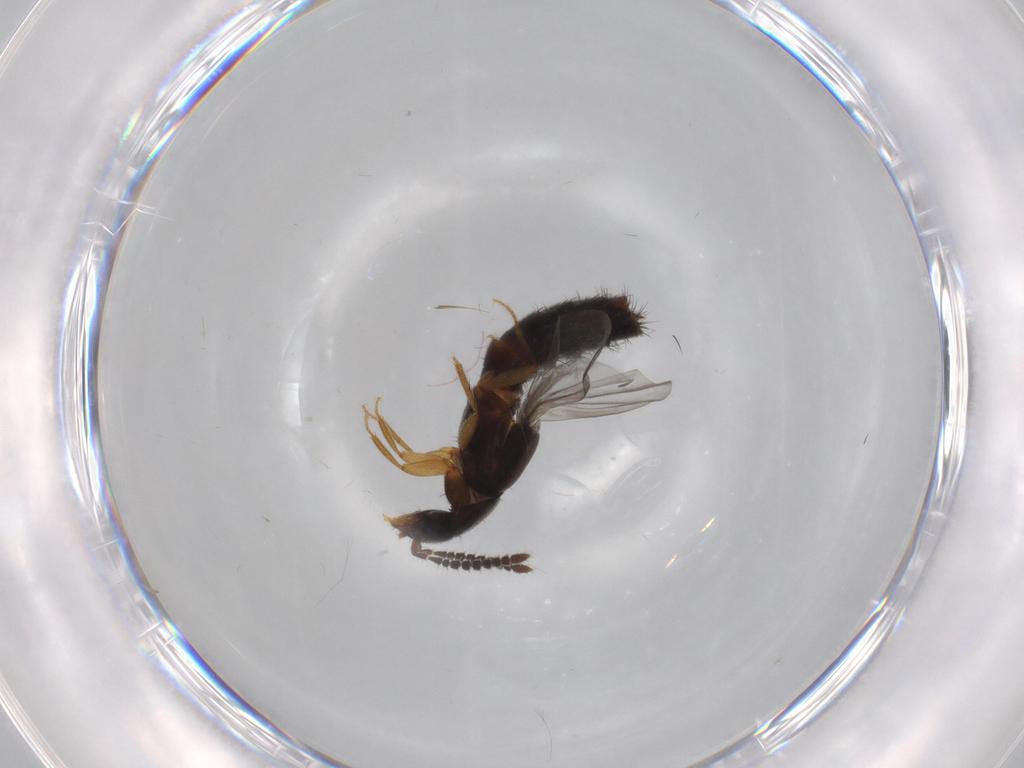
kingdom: Animalia
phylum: Arthropoda
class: Insecta
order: Coleoptera
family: Staphylinidae
